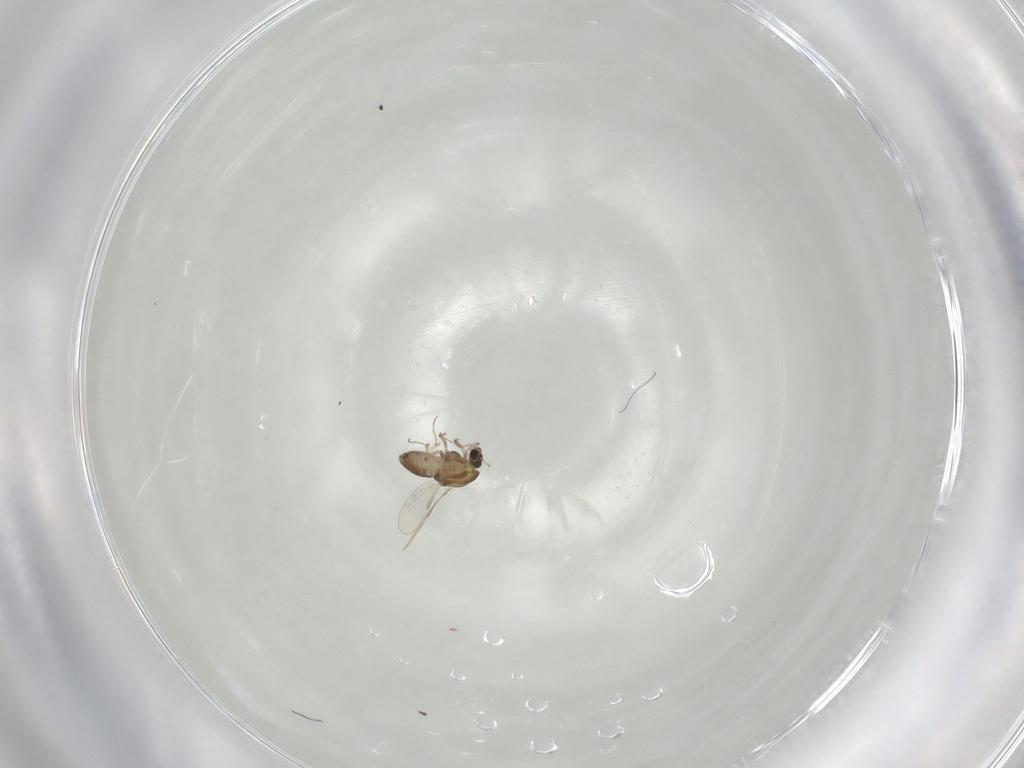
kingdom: Animalia
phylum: Arthropoda
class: Insecta
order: Diptera
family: Chironomidae
